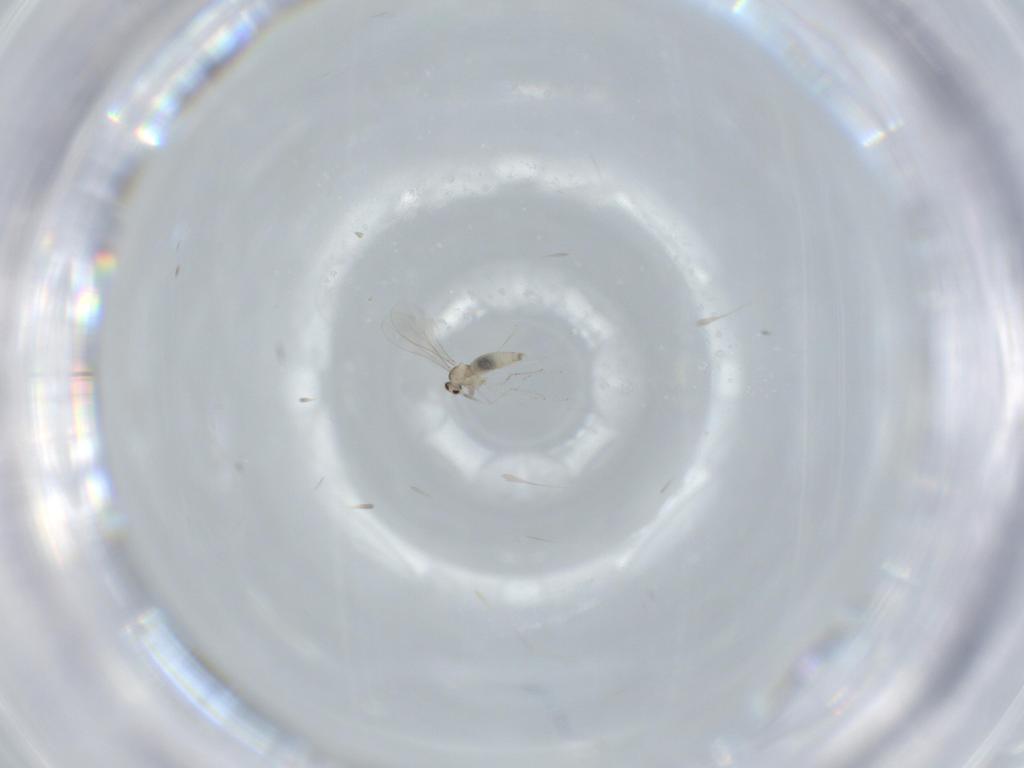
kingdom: Animalia
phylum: Arthropoda
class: Insecta
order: Diptera
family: Cecidomyiidae
